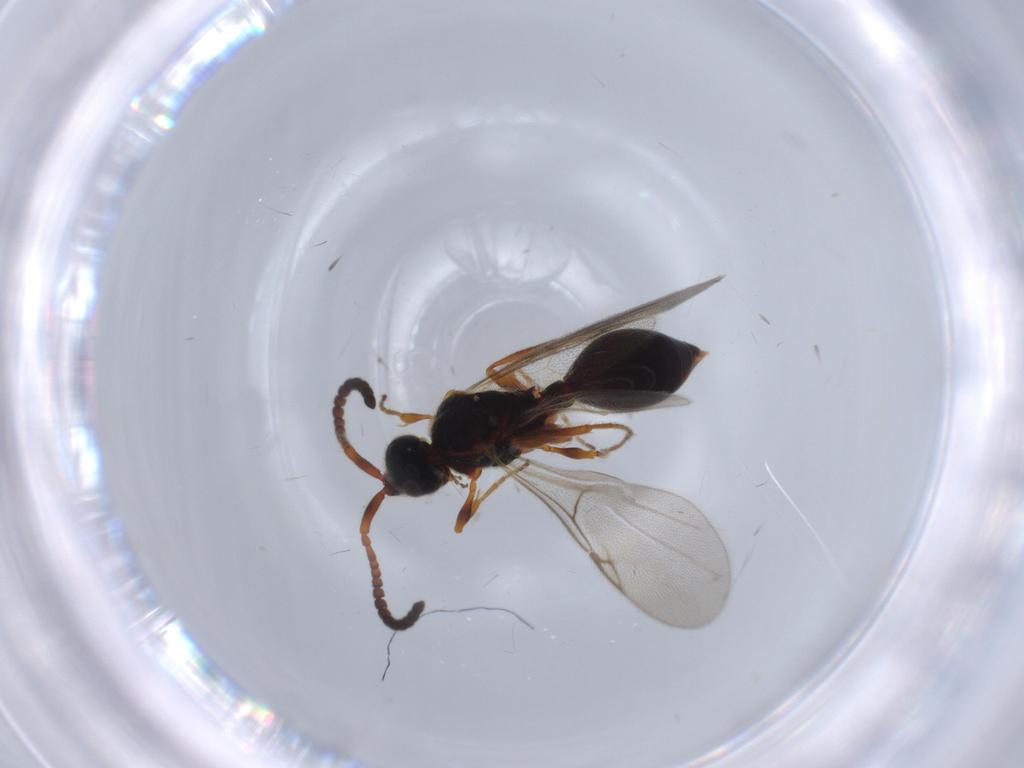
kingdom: Animalia
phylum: Arthropoda
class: Insecta
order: Hymenoptera
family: Diapriidae
